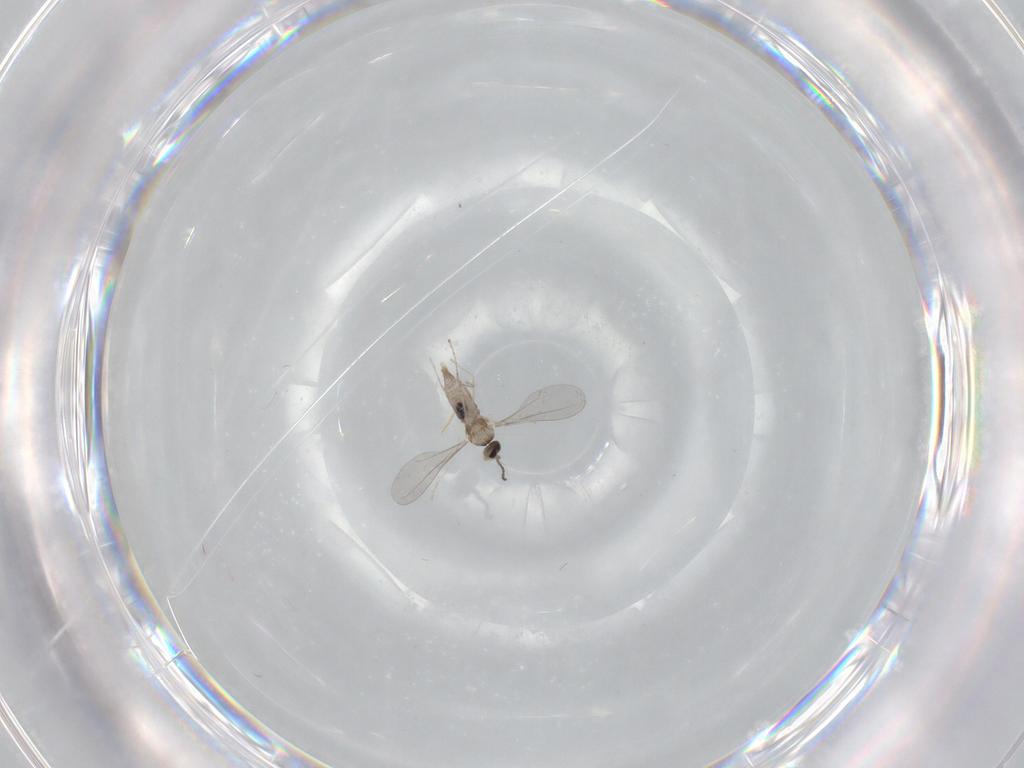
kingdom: Animalia
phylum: Arthropoda
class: Insecta
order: Diptera
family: Cecidomyiidae
